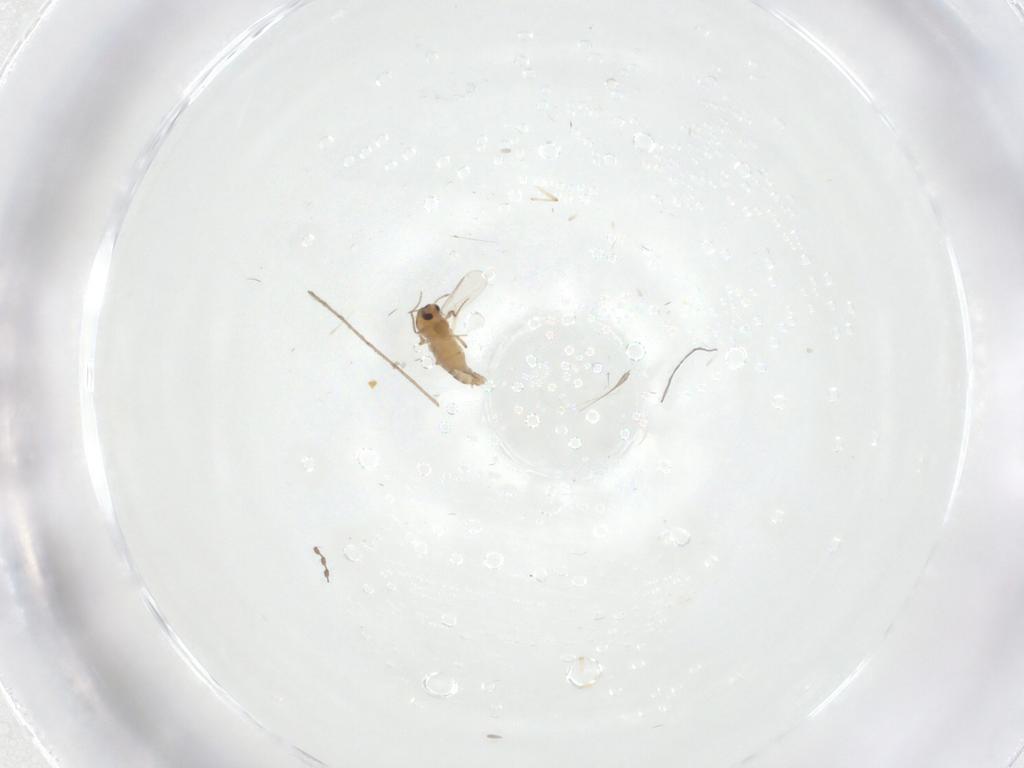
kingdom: Animalia
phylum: Arthropoda
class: Insecta
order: Diptera
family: Chironomidae
